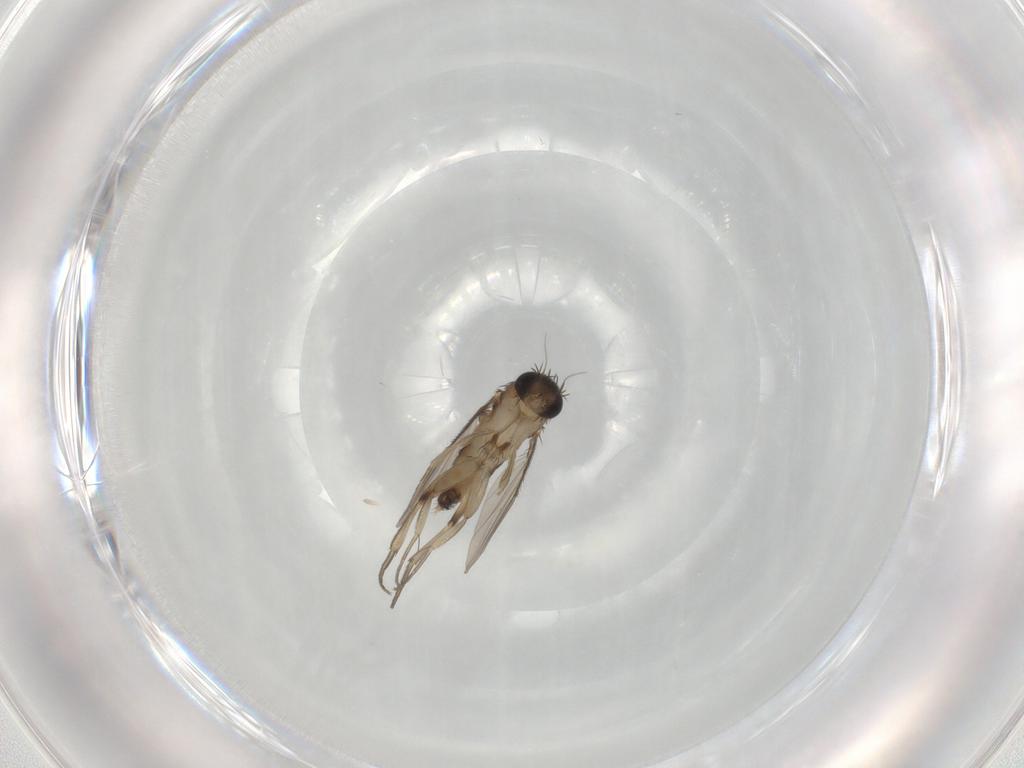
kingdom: Animalia
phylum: Arthropoda
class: Insecta
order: Diptera
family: Phoridae
